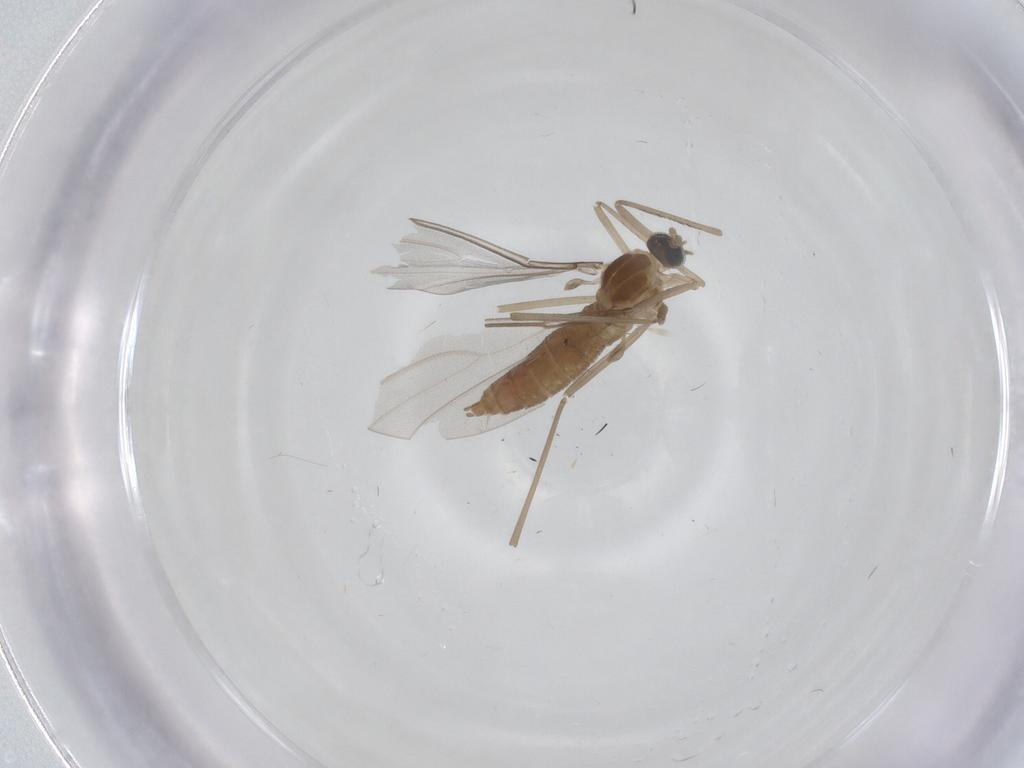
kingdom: Animalia
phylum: Arthropoda
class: Insecta
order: Diptera
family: Cecidomyiidae
